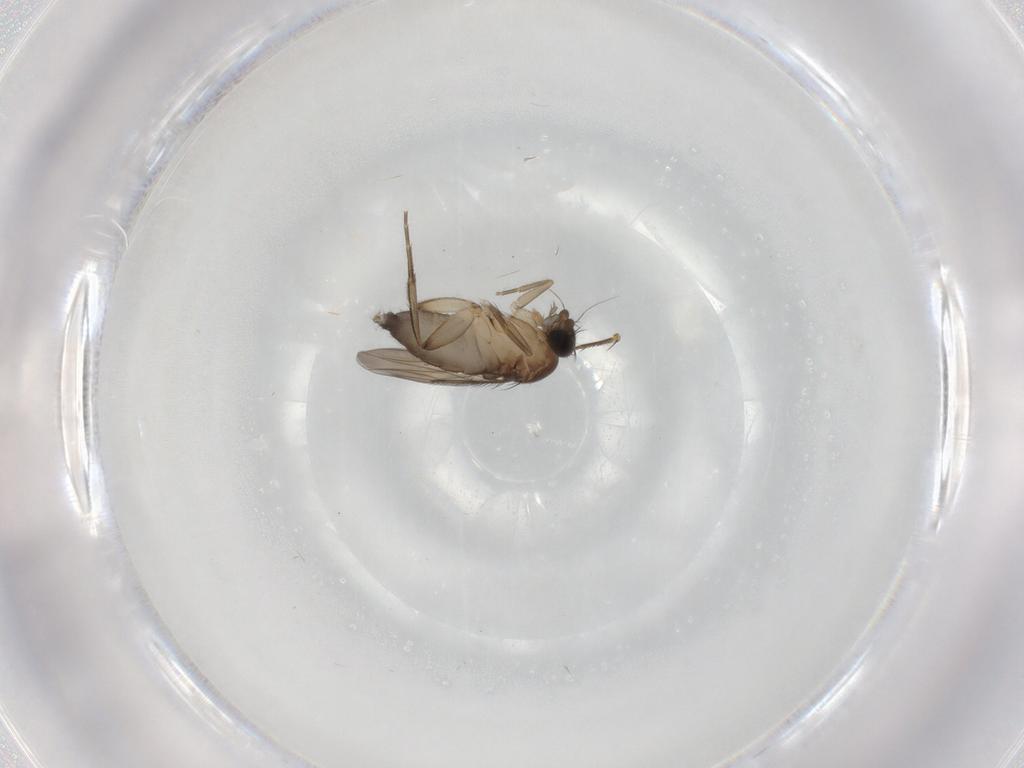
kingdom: Animalia
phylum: Arthropoda
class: Insecta
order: Diptera
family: Phoridae
